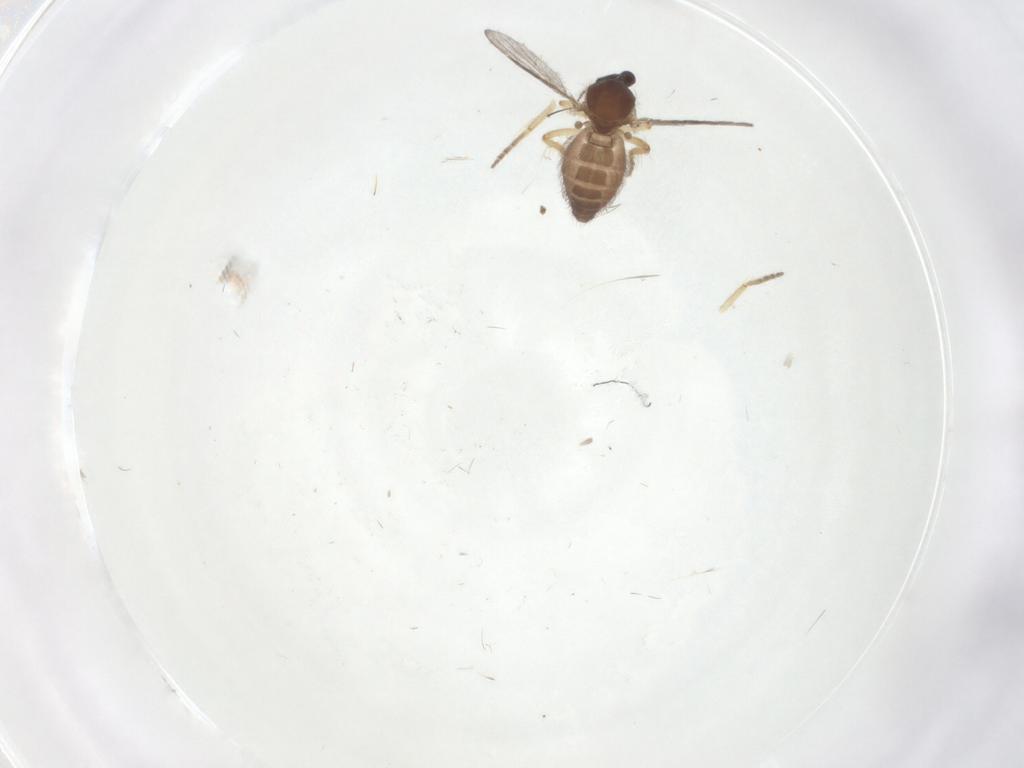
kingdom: Animalia
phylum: Arthropoda
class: Insecta
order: Diptera
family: Ceratopogonidae
